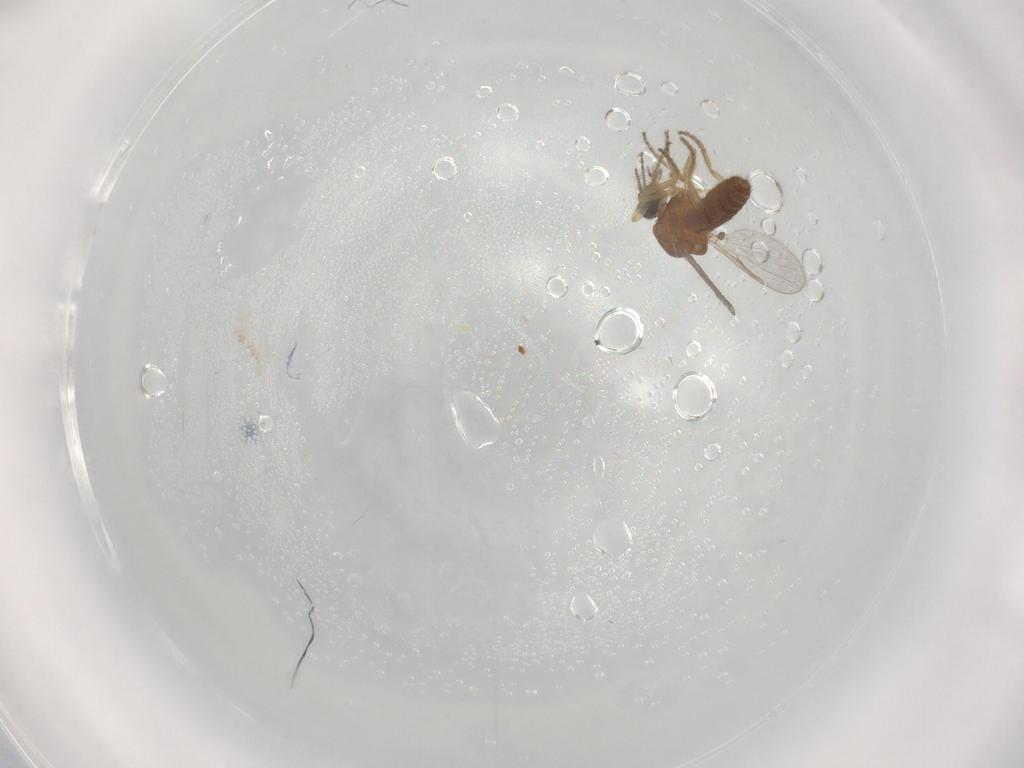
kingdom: Animalia
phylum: Arthropoda
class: Insecta
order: Diptera
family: Ceratopogonidae
